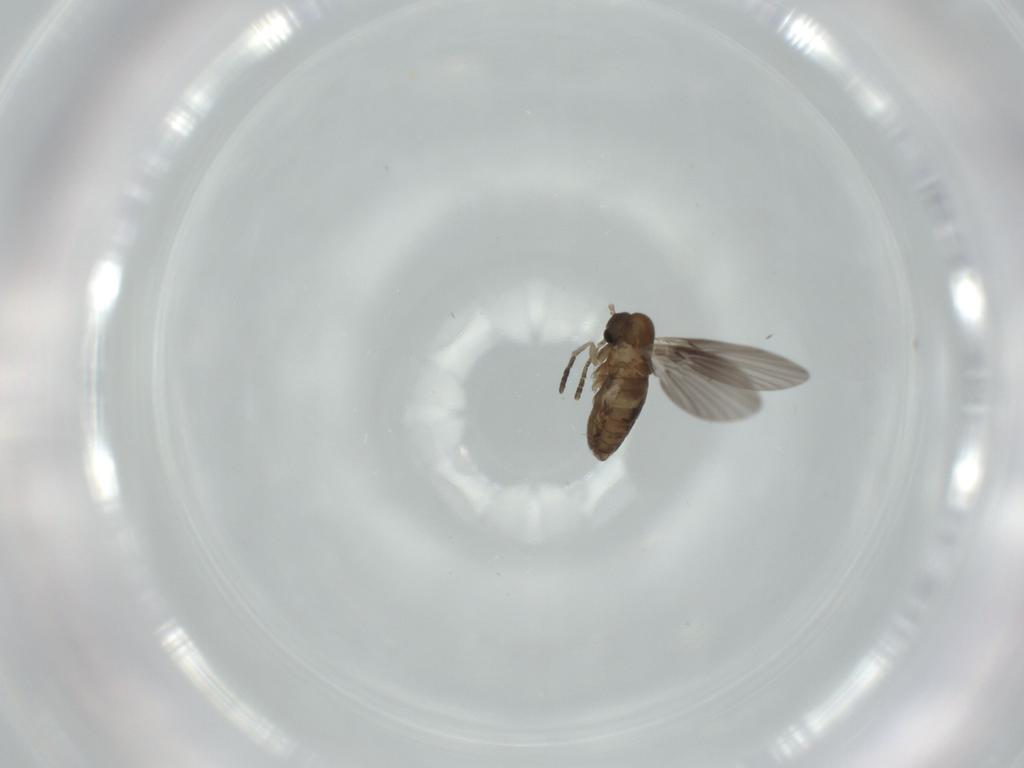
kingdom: Animalia
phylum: Arthropoda
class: Insecta
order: Diptera
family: Psychodidae
